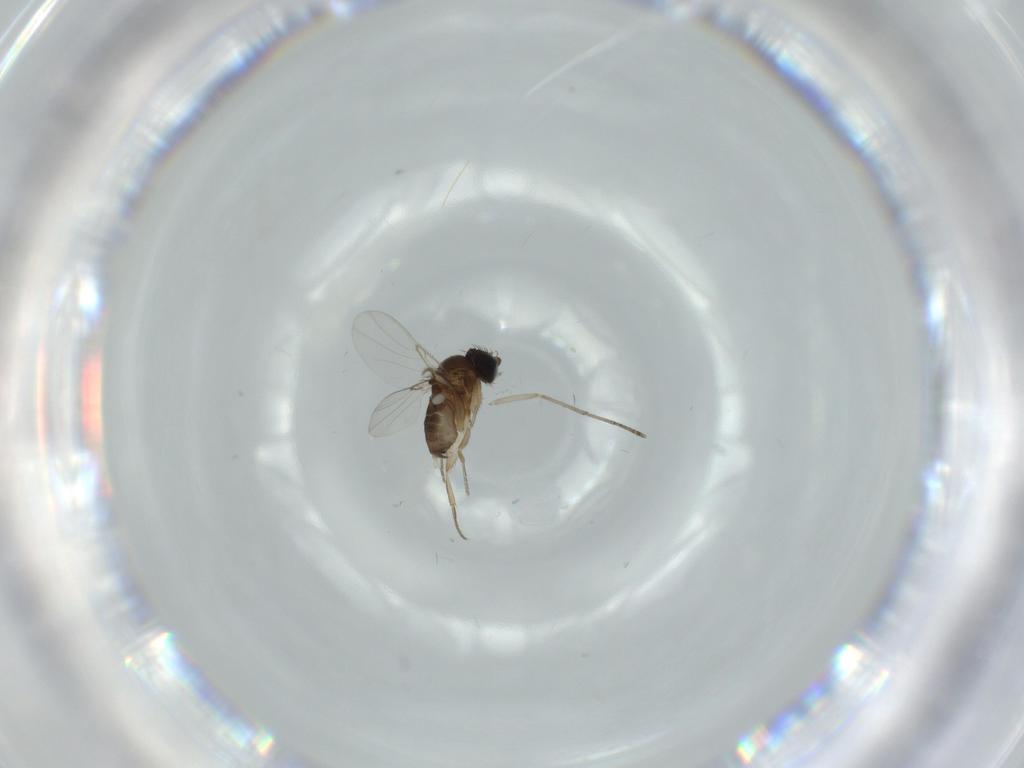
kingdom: Animalia
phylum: Arthropoda
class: Insecta
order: Diptera
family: Cecidomyiidae
